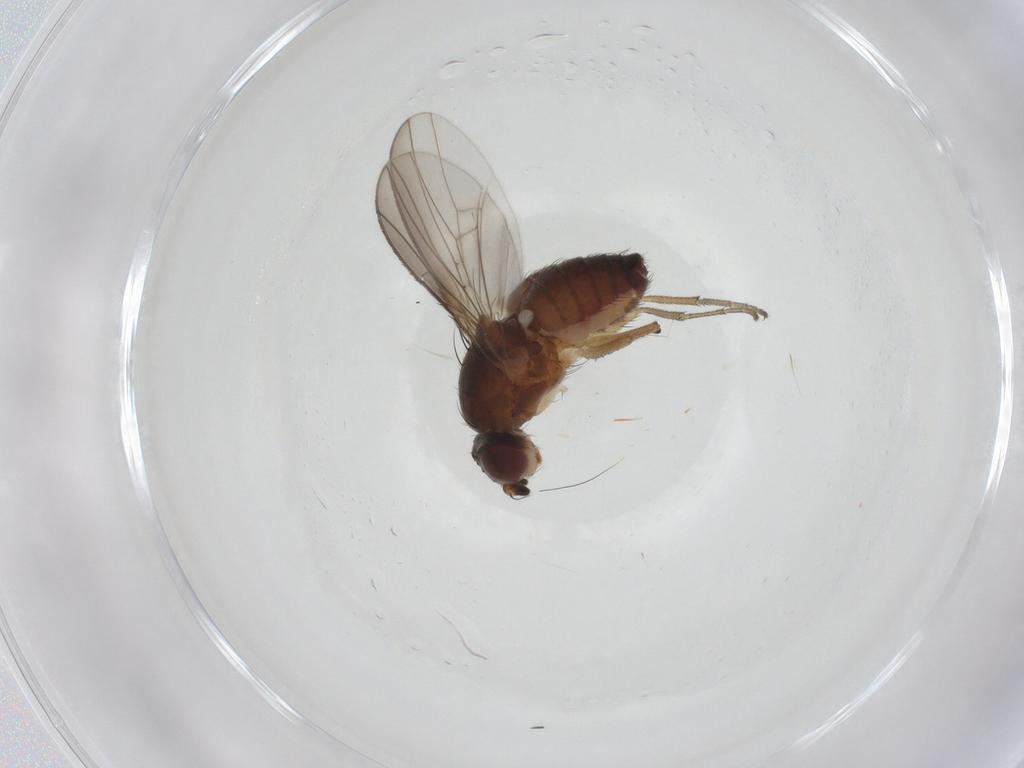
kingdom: Animalia
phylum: Arthropoda
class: Insecta
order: Diptera
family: Heleomyzidae
